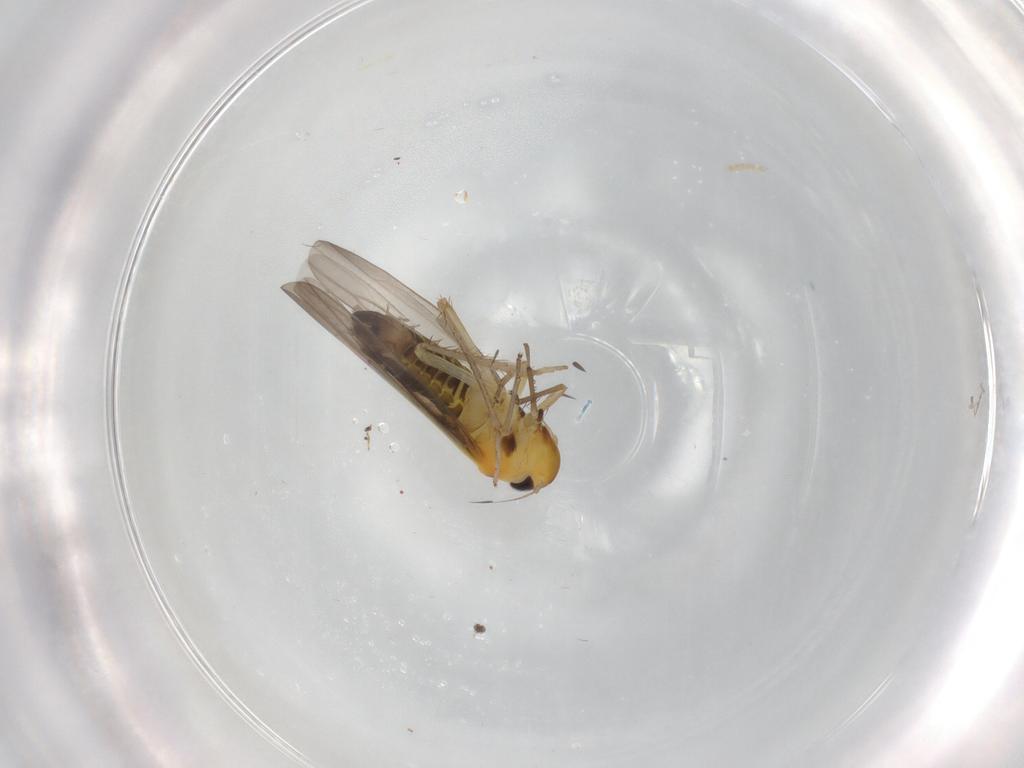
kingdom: Animalia
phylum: Arthropoda
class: Insecta
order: Hemiptera
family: Cicadellidae
